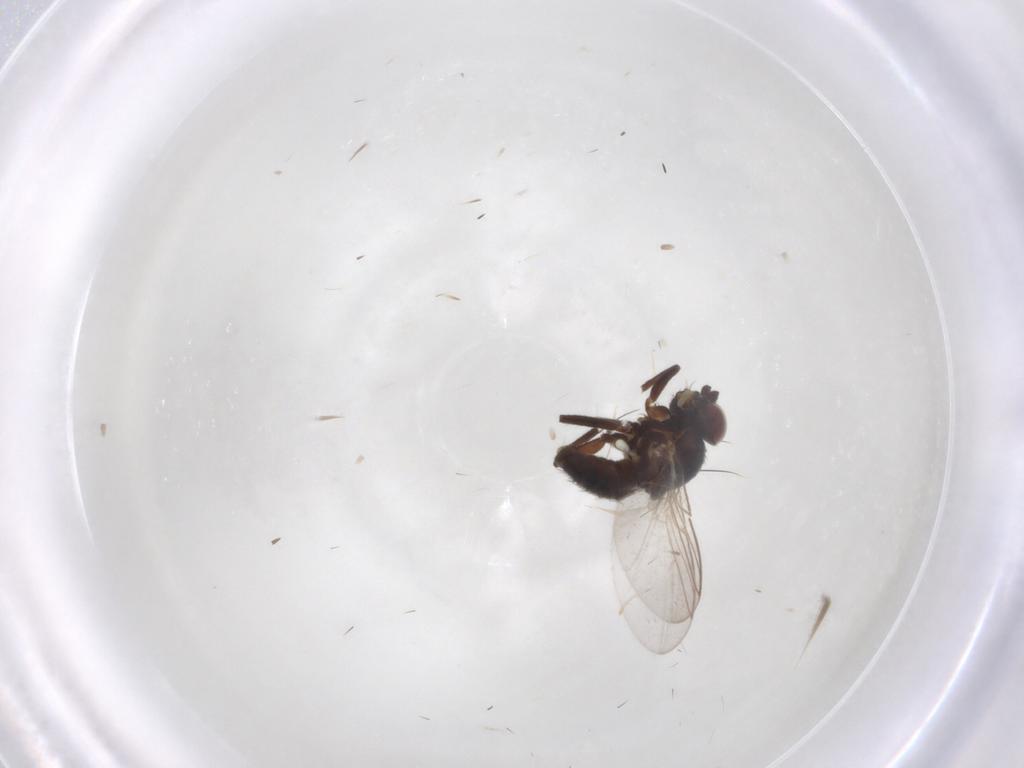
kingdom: Animalia
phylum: Arthropoda
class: Insecta
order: Diptera
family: Cecidomyiidae
